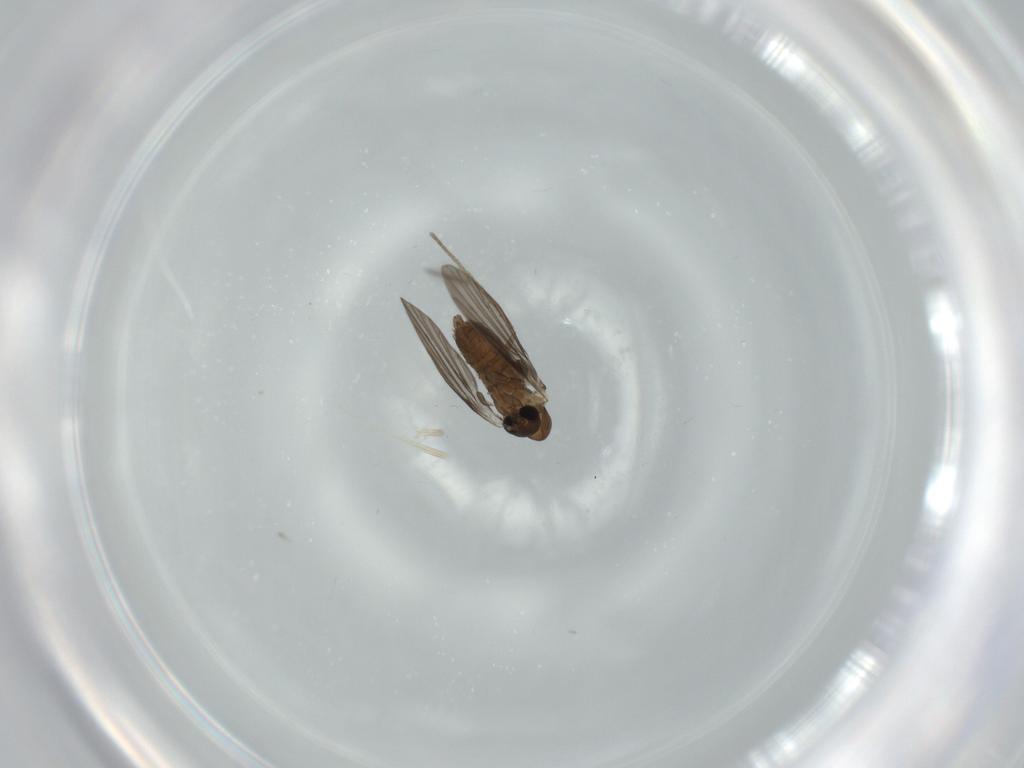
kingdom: Animalia
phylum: Arthropoda
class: Insecta
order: Diptera
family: Psychodidae
